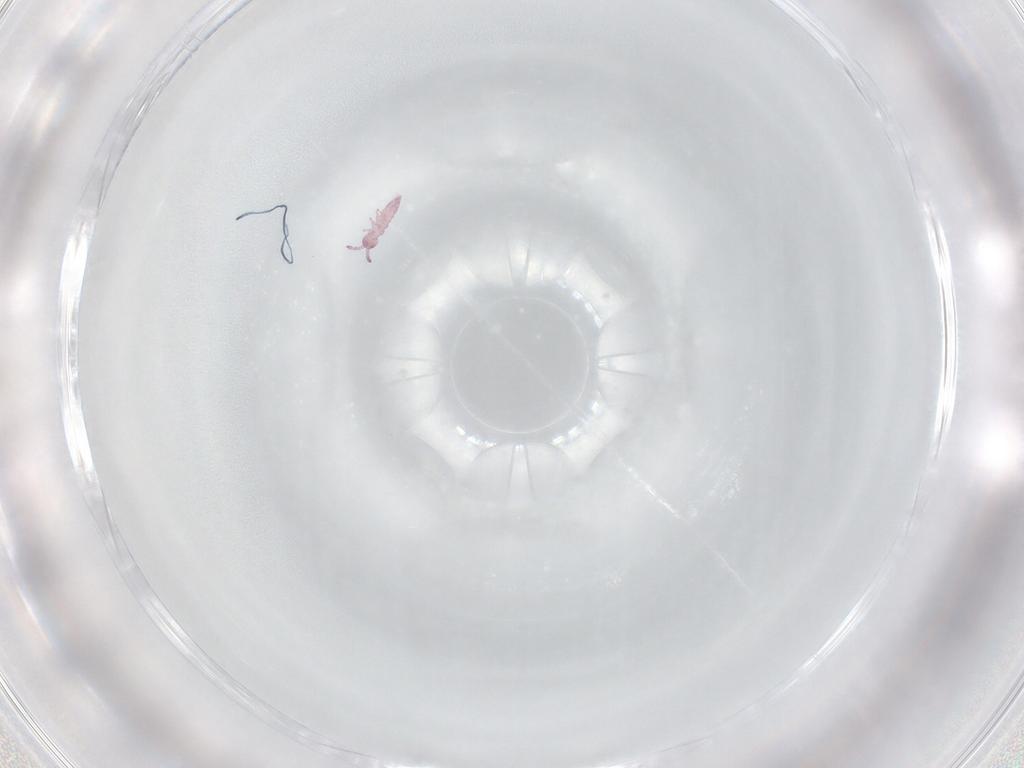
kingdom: Animalia
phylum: Arthropoda
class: Collembola
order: Entomobryomorpha
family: Isotomidae
